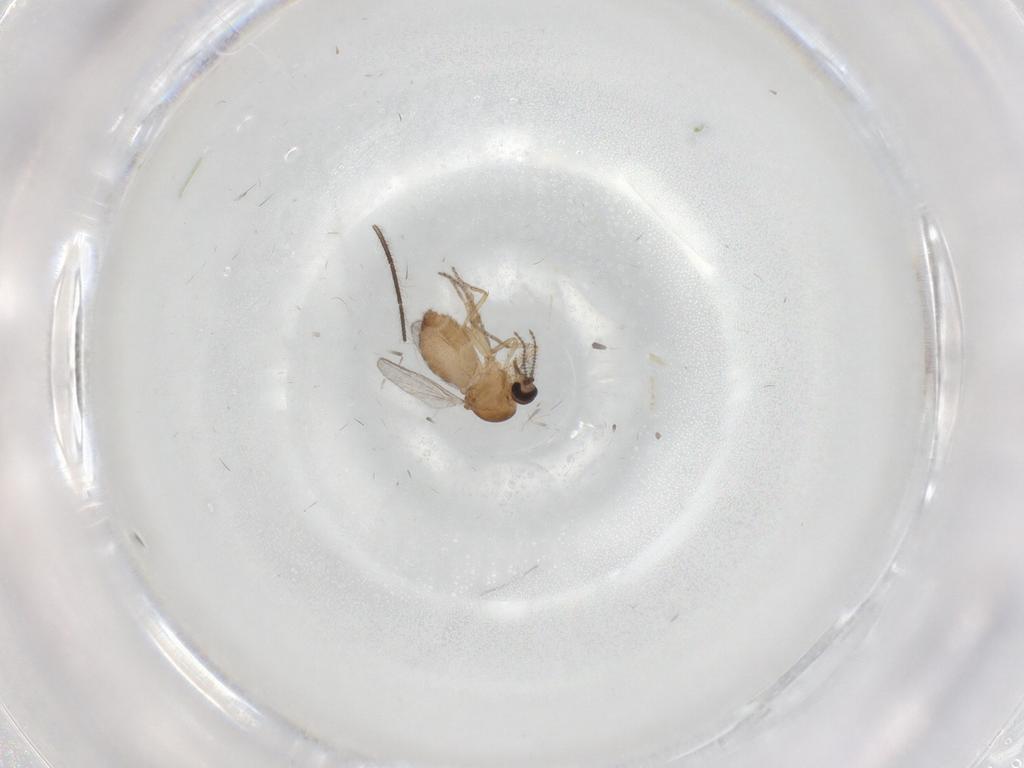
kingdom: Animalia
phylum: Arthropoda
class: Insecta
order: Diptera
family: Ceratopogonidae
